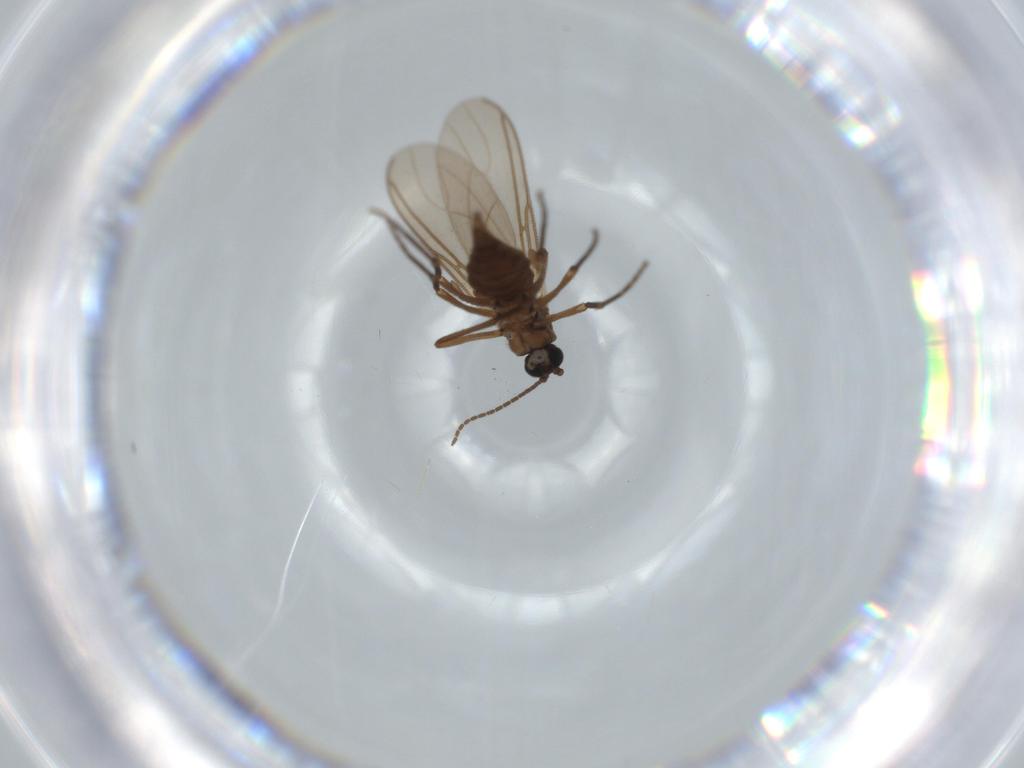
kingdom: Animalia
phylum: Arthropoda
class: Insecta
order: Diptera
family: Sciaridae
